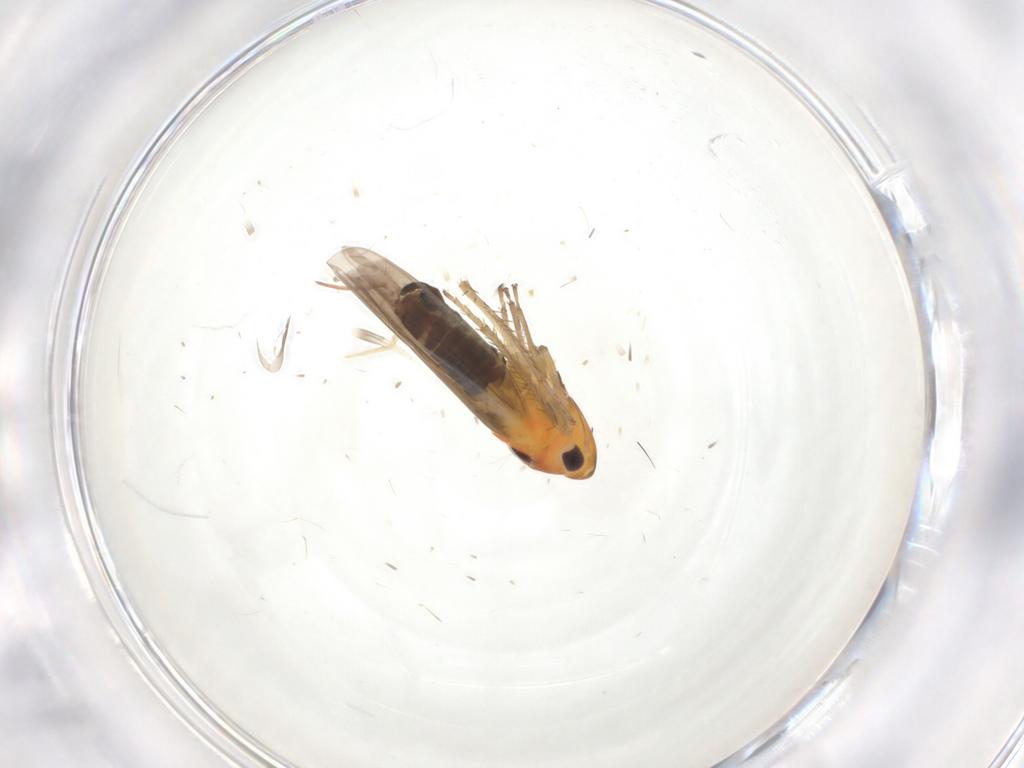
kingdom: Animalia
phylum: Arthropoda
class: Insecta
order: Hemiptera
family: Cicadellidae
